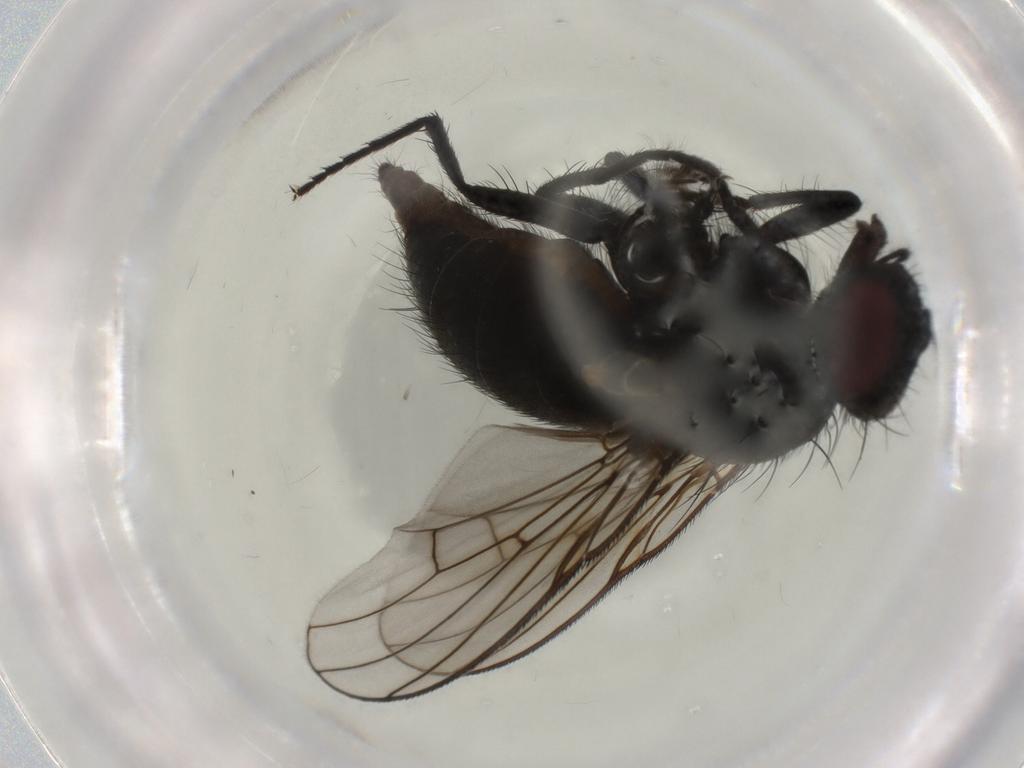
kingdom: Animalia
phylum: Arthropoda
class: Insecta
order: Diptera
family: Muscidae
